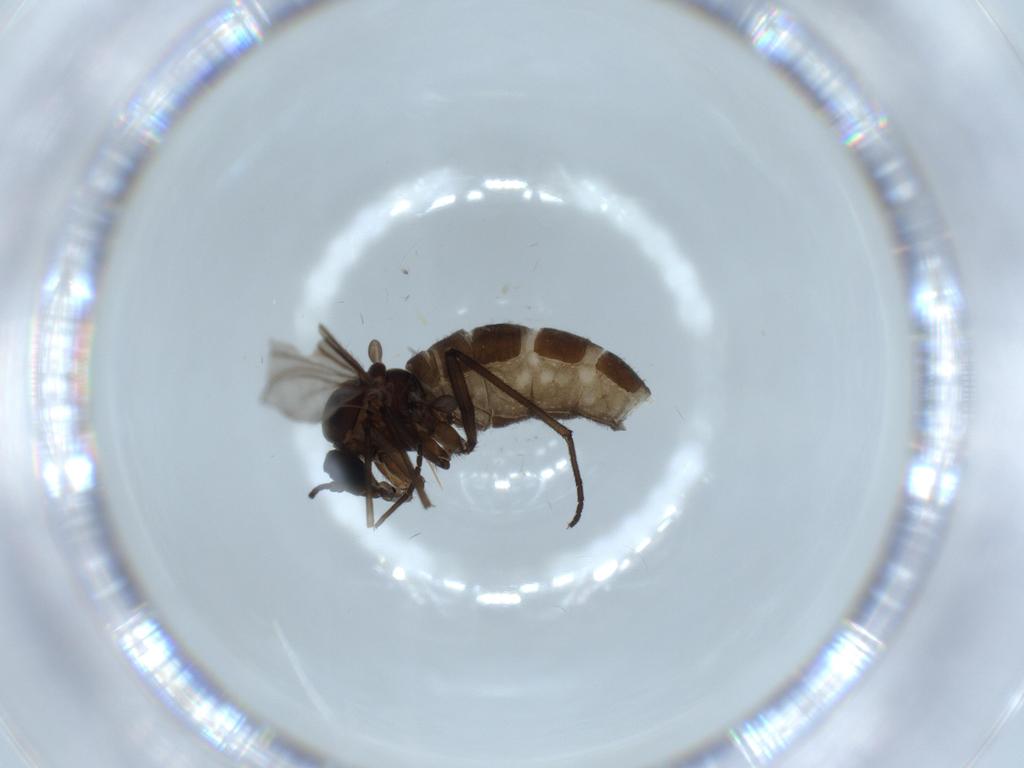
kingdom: Animalia
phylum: Arthropoda
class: Insecta
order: Diptera
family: Sciaridae
